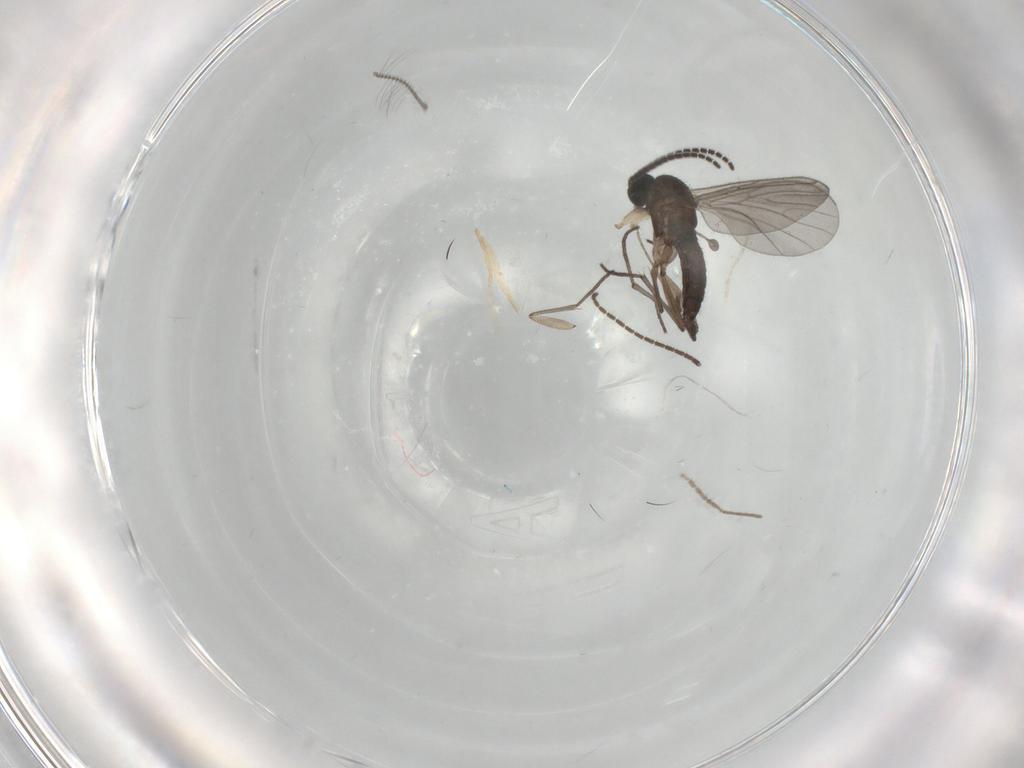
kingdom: Animalia
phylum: Arthropoda
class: Insecta
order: Diptera
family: Sciaridae
